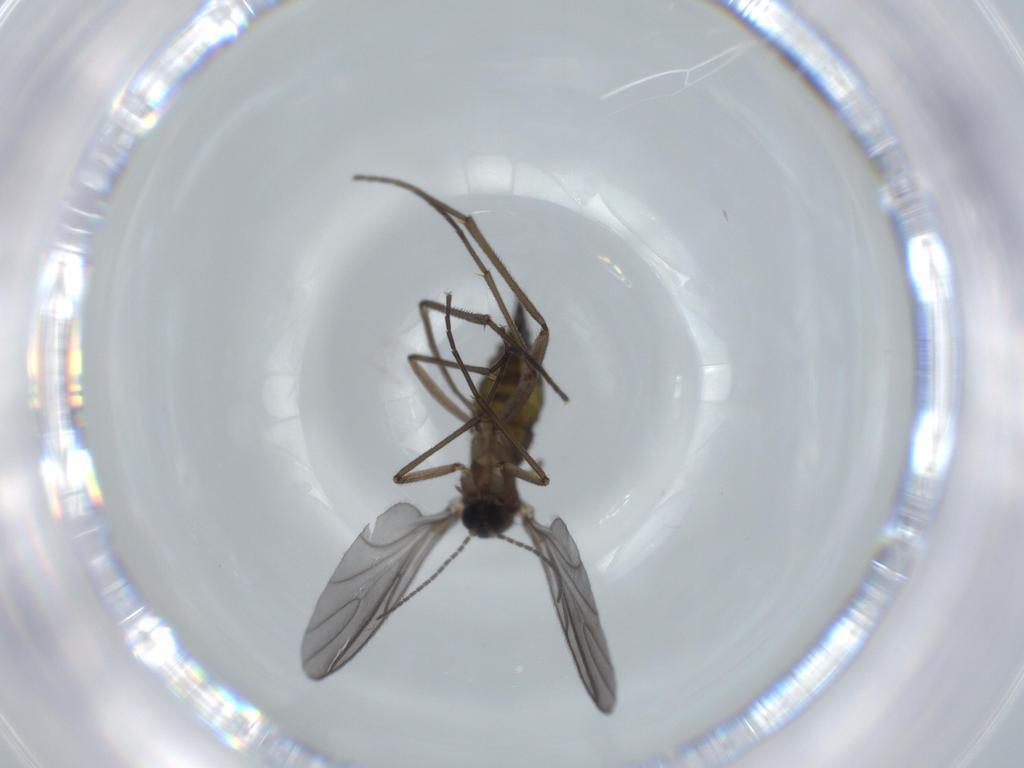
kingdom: Animalia
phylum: Arthropoda
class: Insecta
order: Diptera
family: Sciaridae
